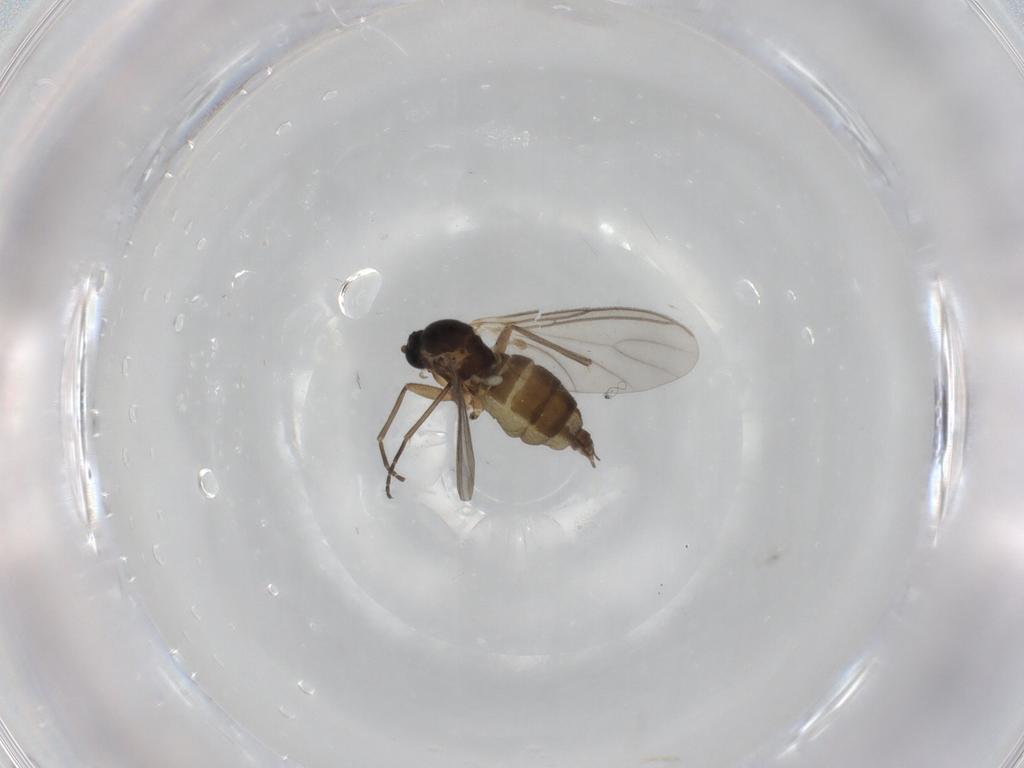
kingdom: Animalia
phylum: Arthropoda
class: Insecta
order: Diptera
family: Sciaridae
